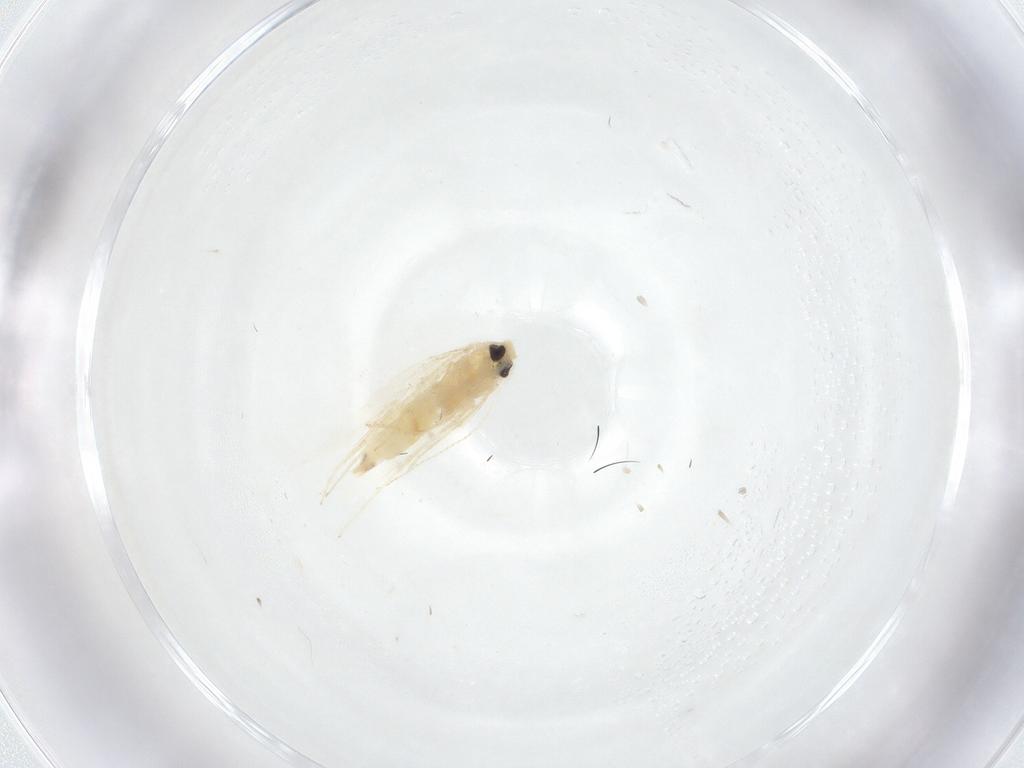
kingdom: Animalia
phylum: Arthropoda
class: Insecta
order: Lepidoptera
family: Gracillariidae
